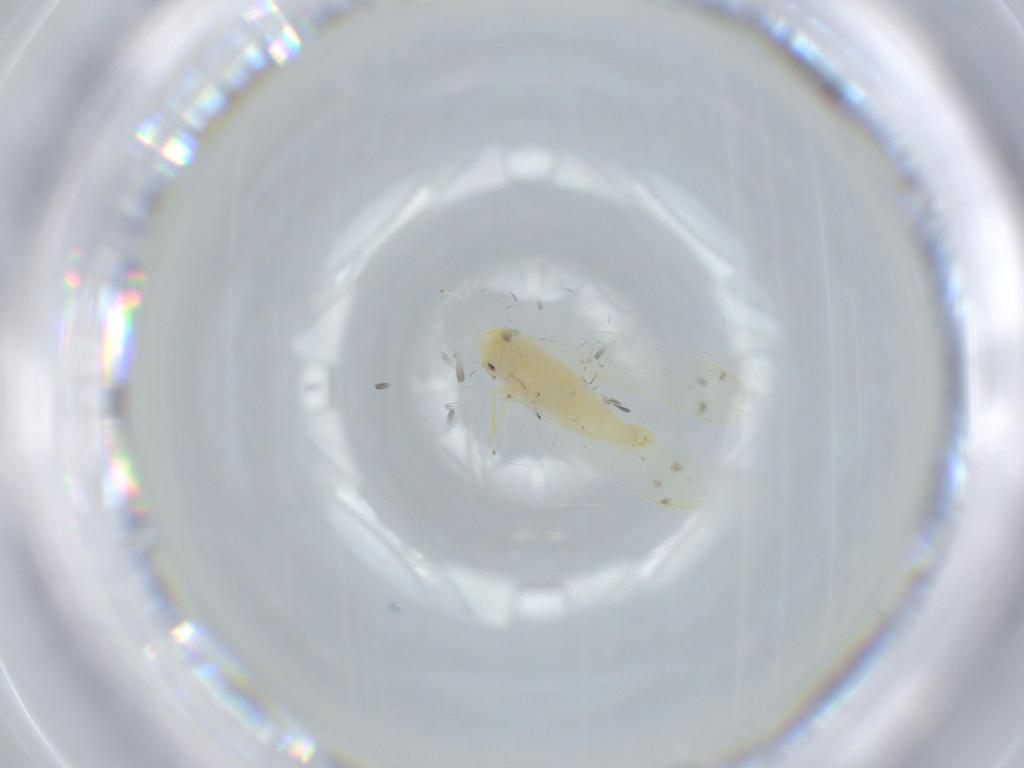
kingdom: Animalia
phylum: Arthropoda
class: Insecta
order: Hemiptera
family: Cicadellidae
